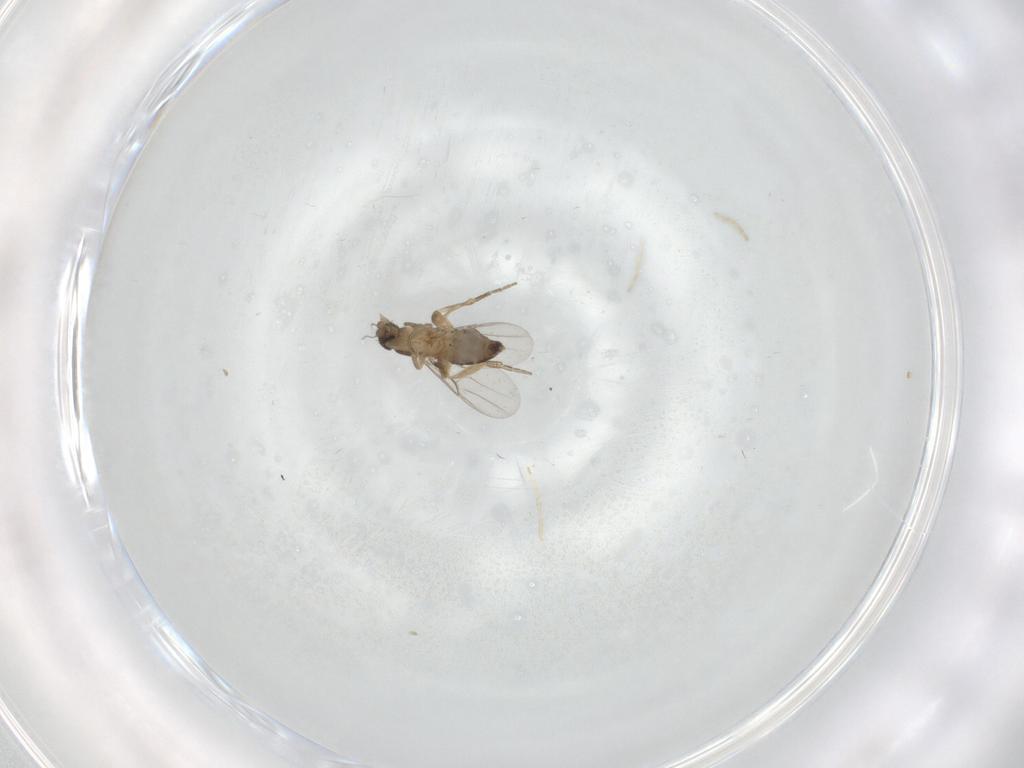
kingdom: Animalia
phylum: Arthropoda
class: Insecta
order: Diptera
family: Phoridae
